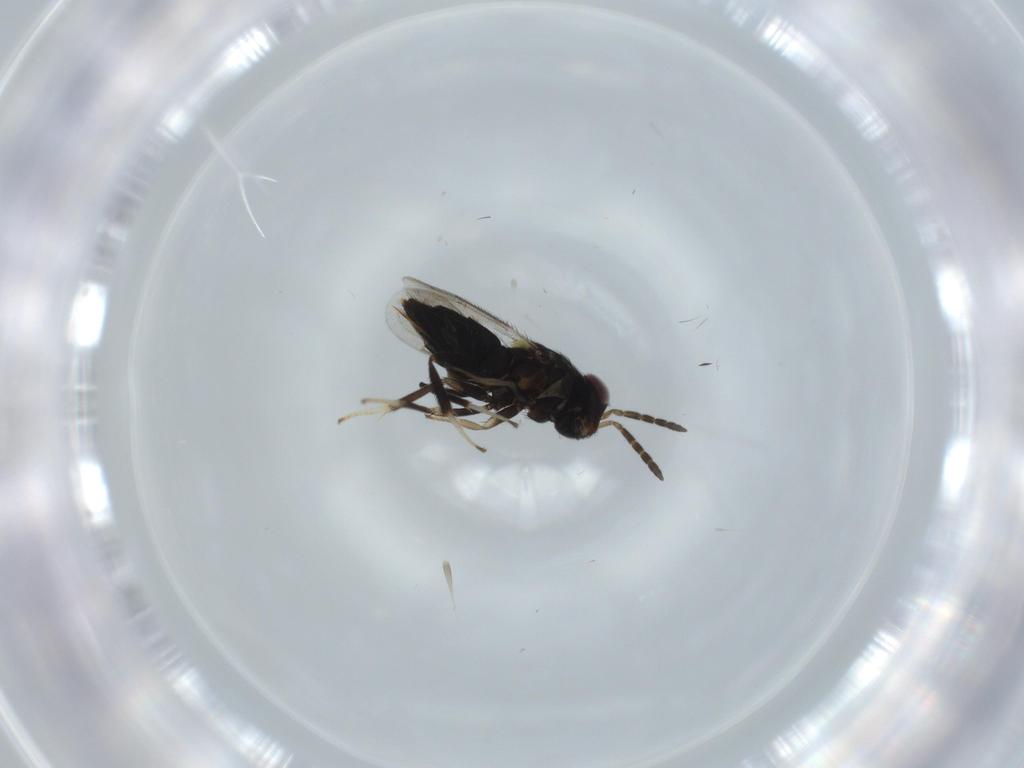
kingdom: Animalia
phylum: Arthropoda
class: Insecta
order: Hymenoptera
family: Aphelinidae
